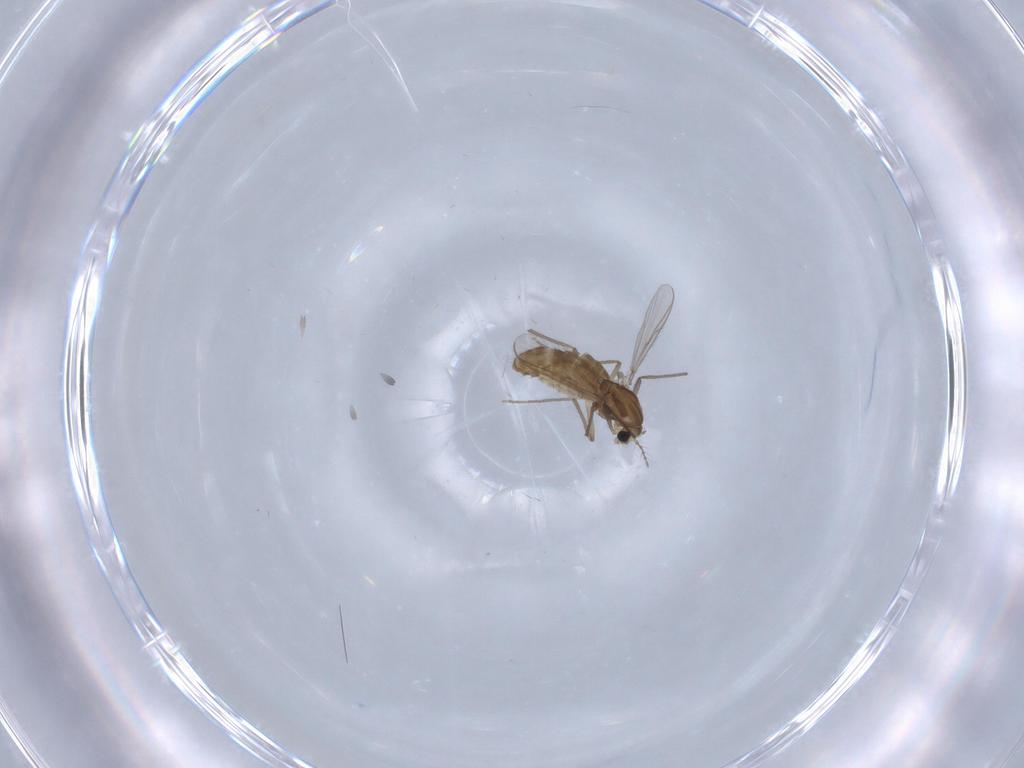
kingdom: Animalia
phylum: Arthropoda
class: Insecta
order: Diptera
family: Chironomidae
